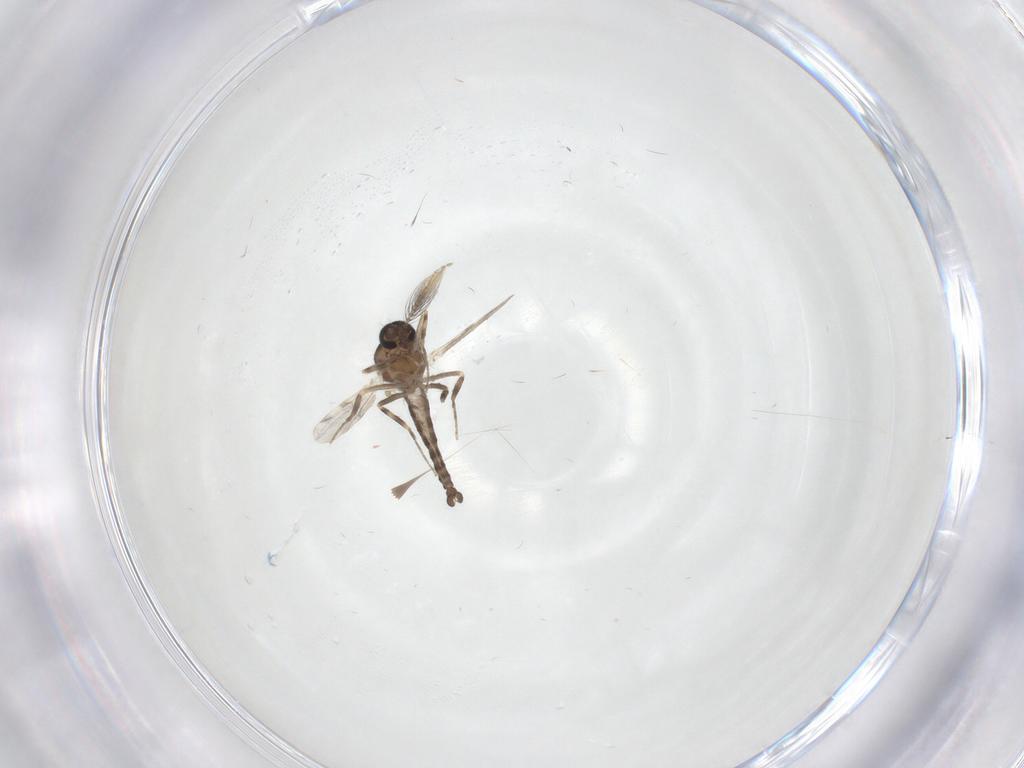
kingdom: Animalia
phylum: Arthropoda
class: Insecta
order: Diptera
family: Ceratopogonidae
